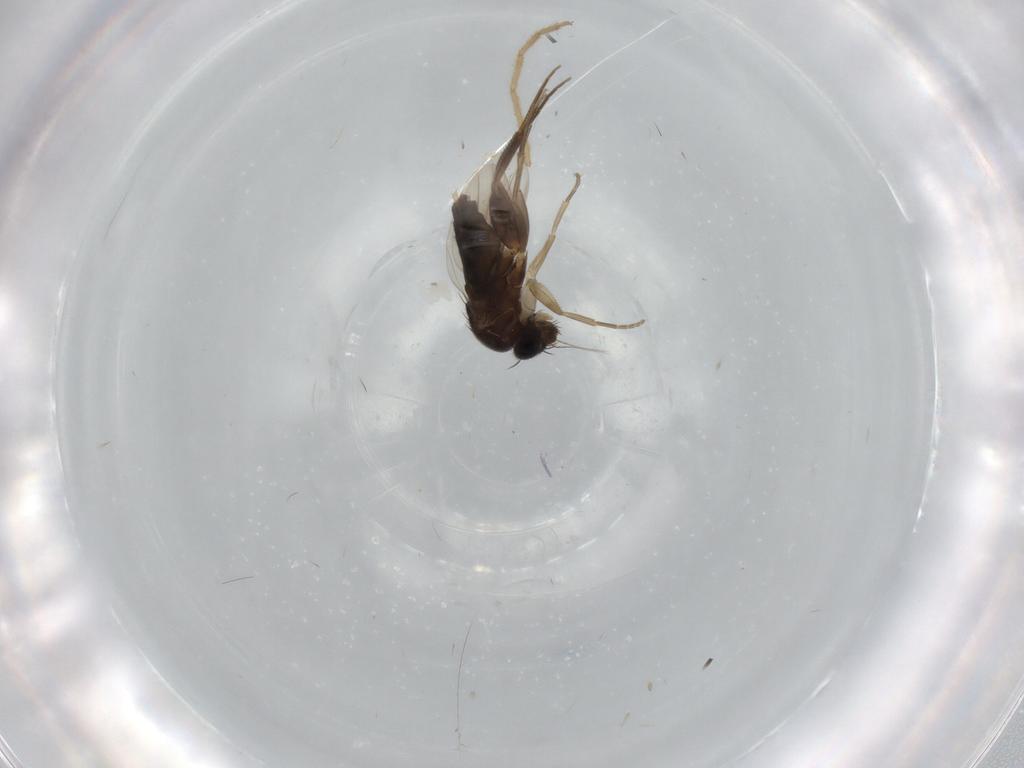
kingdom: Animalia
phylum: Arthropoda
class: Insecta
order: Diptera
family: Phoridae
